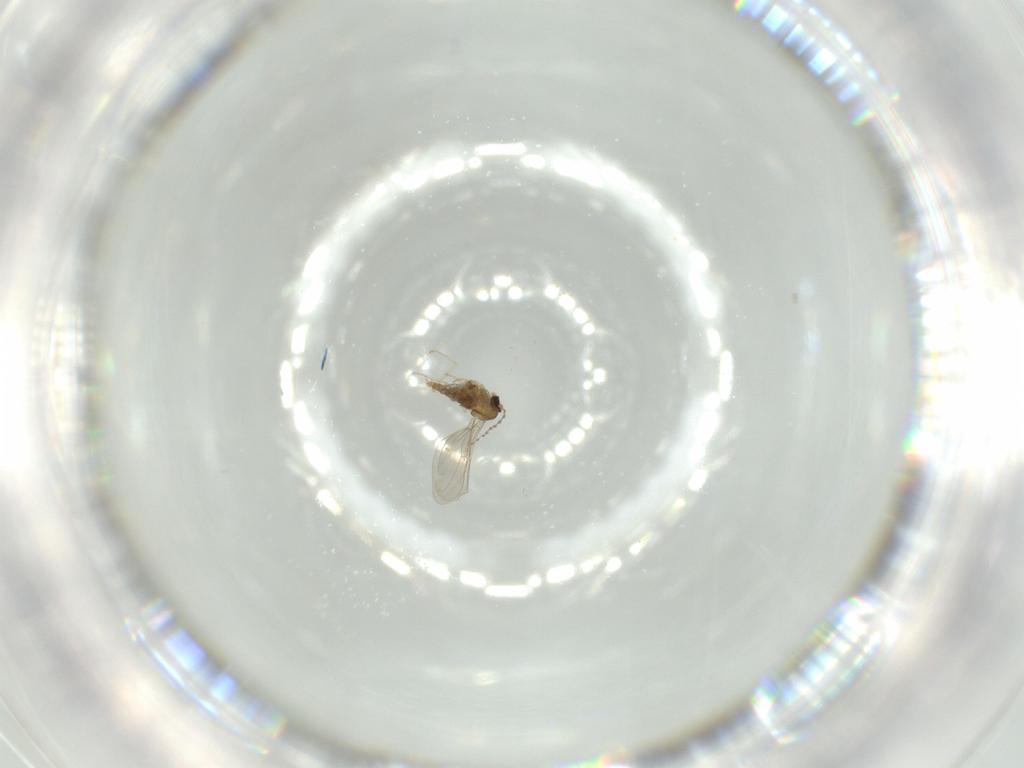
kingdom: Animalia
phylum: Arthropoda
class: Insecta
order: Diptera
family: Cecidomyiidae
